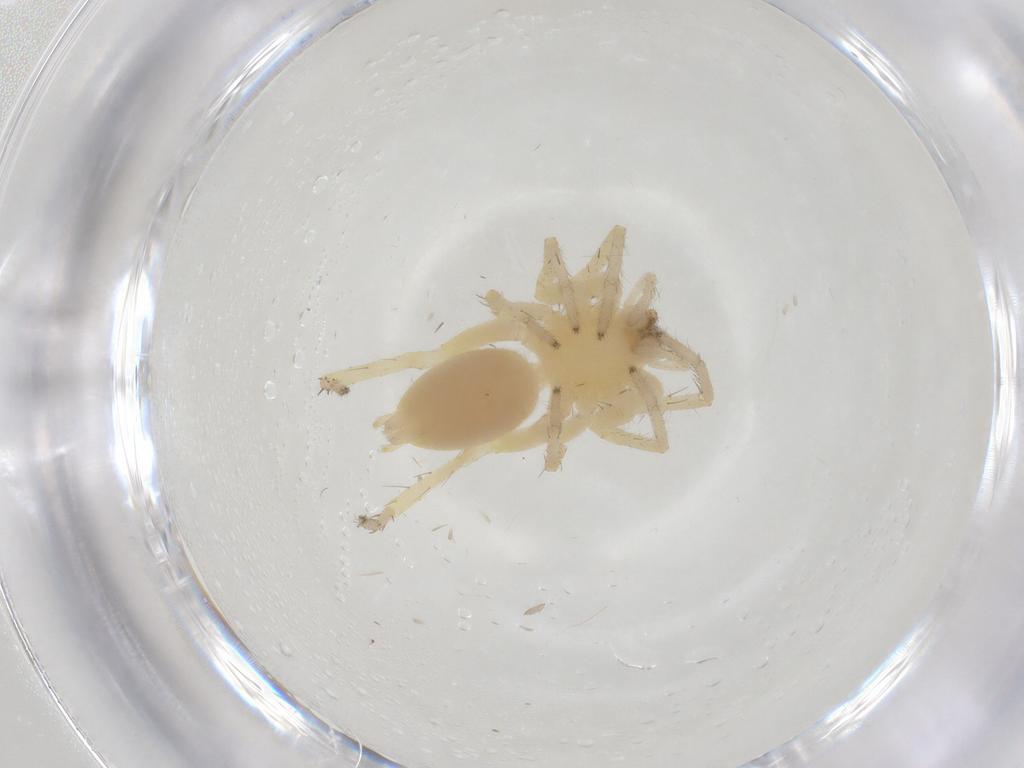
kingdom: Animalia
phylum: Arthropoda
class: Arachnida
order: Araneae
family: Anyphaenidae
